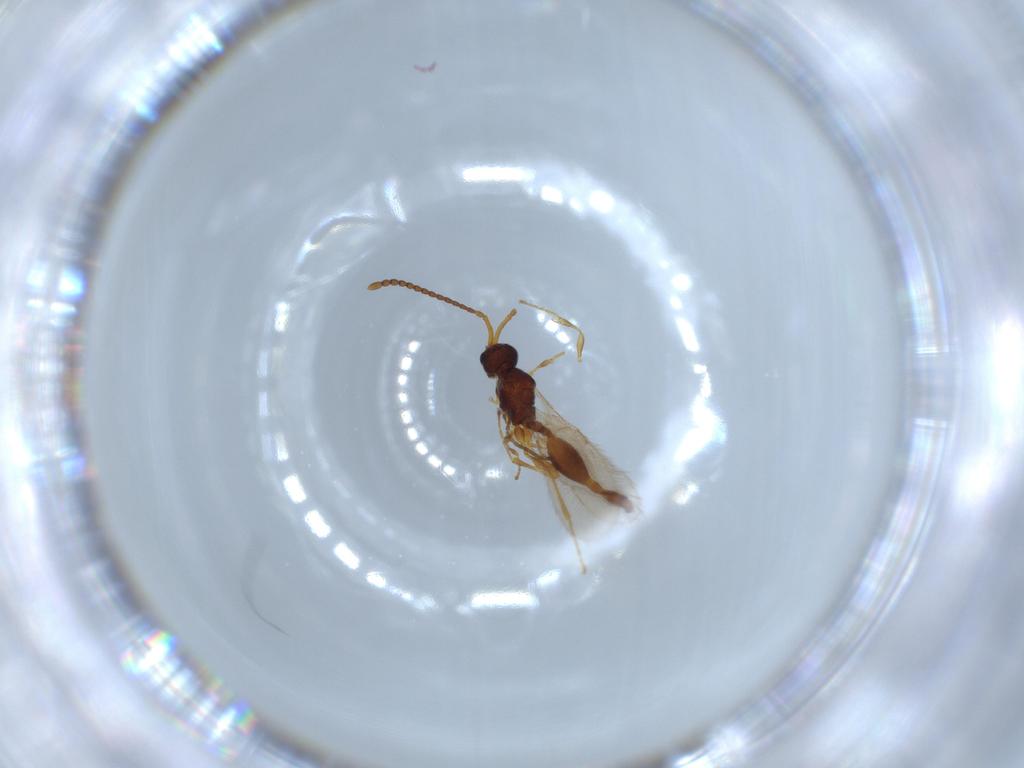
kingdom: Animalia
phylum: Arthropoda
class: Insecta
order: Hymenoptera
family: Diapriidae
